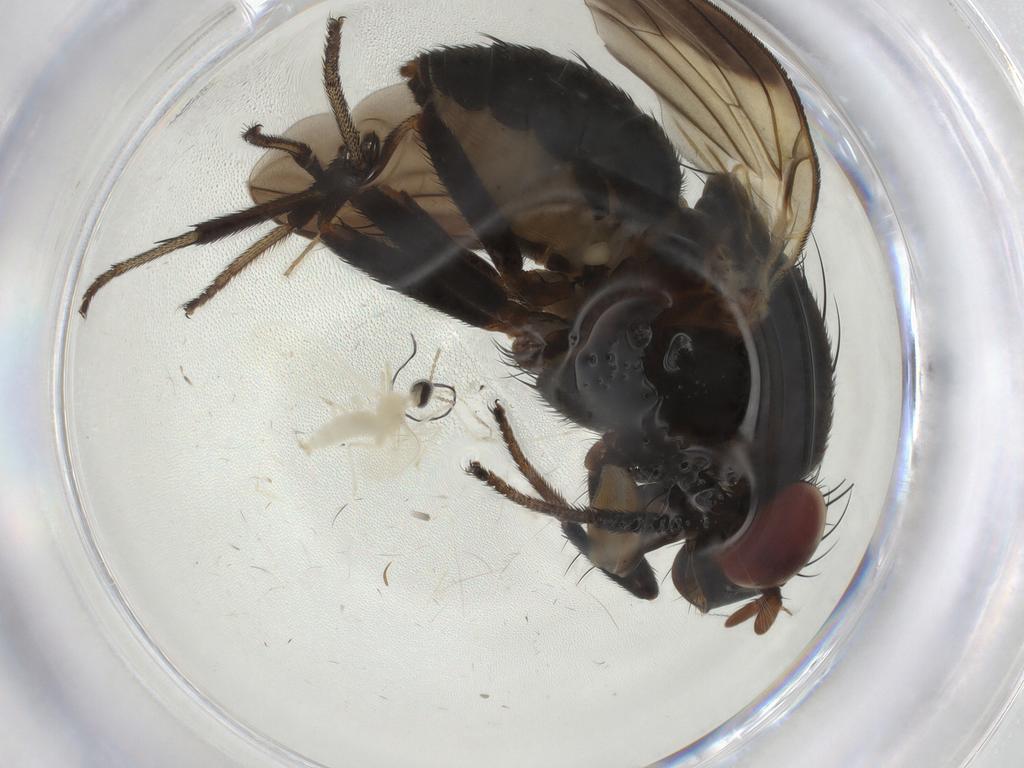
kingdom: Animalia
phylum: Arthropoda
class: Insecta
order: Diptera
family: Lauxaniidae
